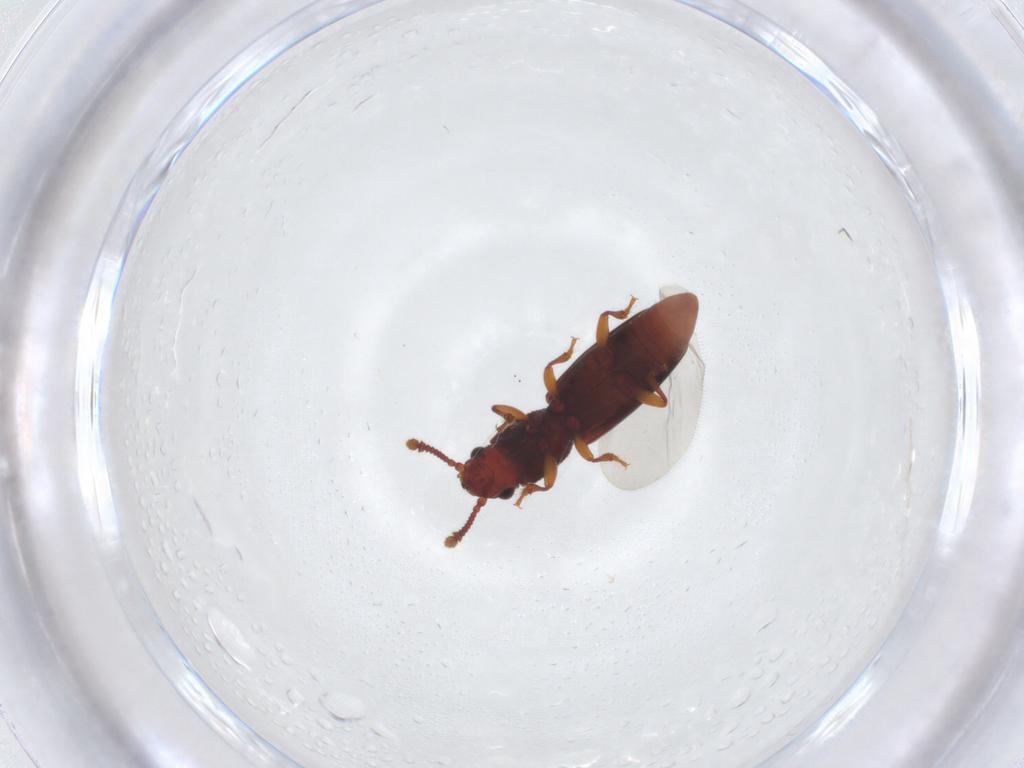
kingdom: Animalia
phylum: Arthropoda
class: Insecta
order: Coleoptera
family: Monotomidae
